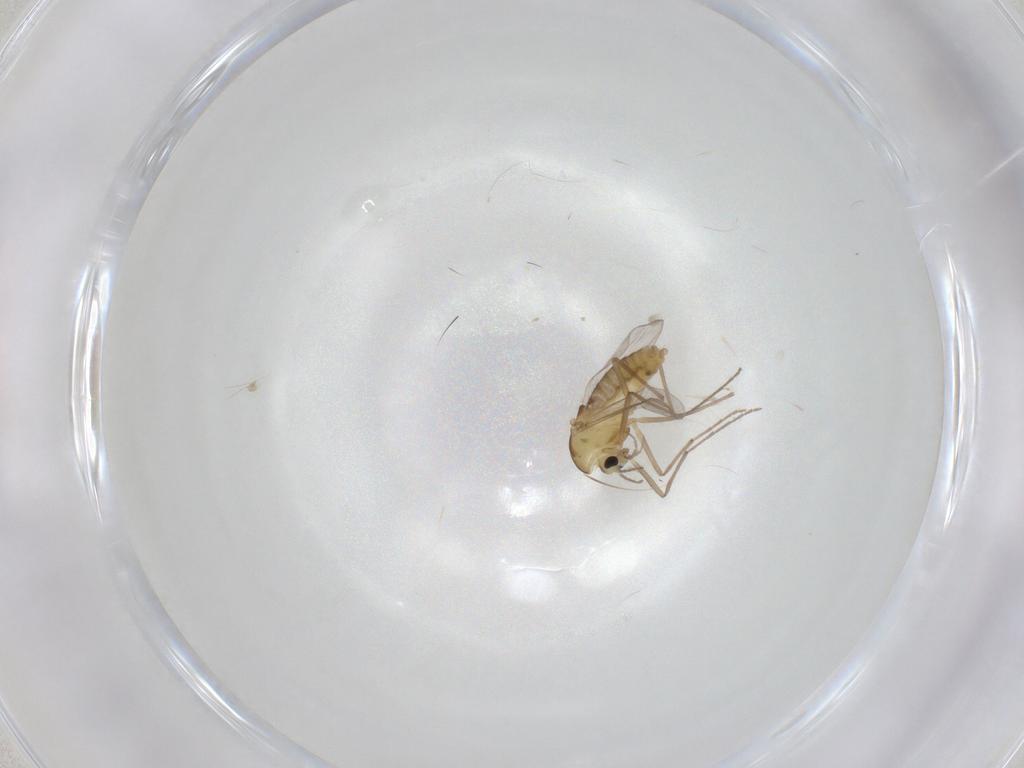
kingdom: Animalia
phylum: Arthropoda
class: Insecta
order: Diptera
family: Chironomidae
